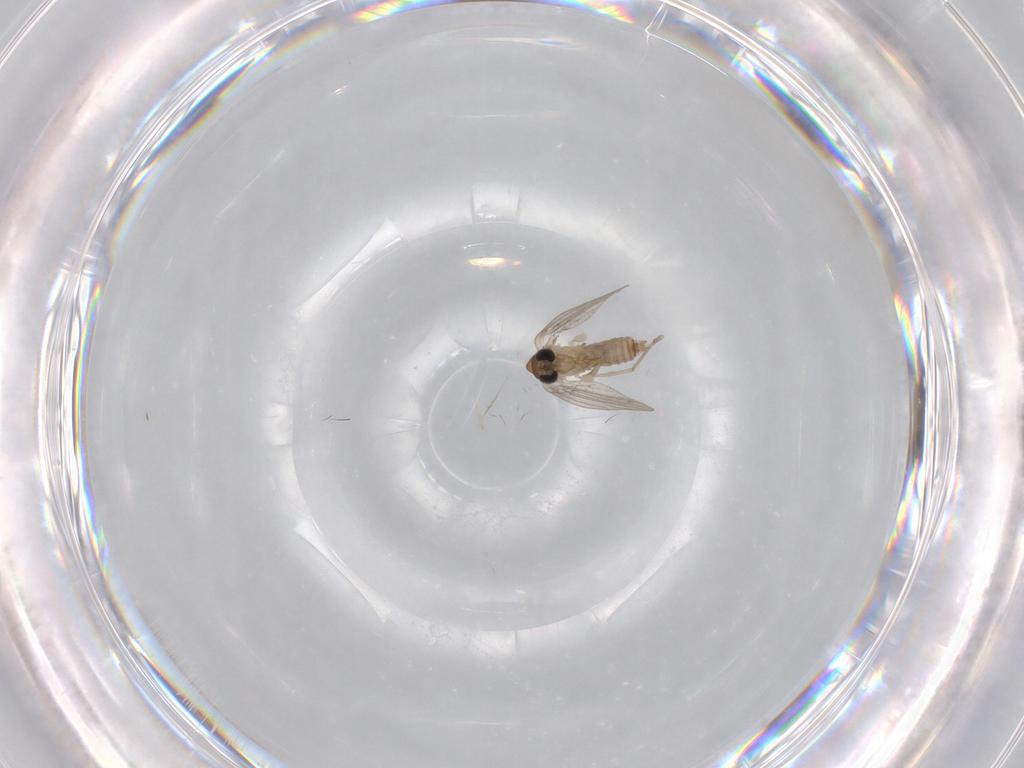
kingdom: Animalia
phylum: Arthropoda
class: Insecta
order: Diptera
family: Psychodidae
